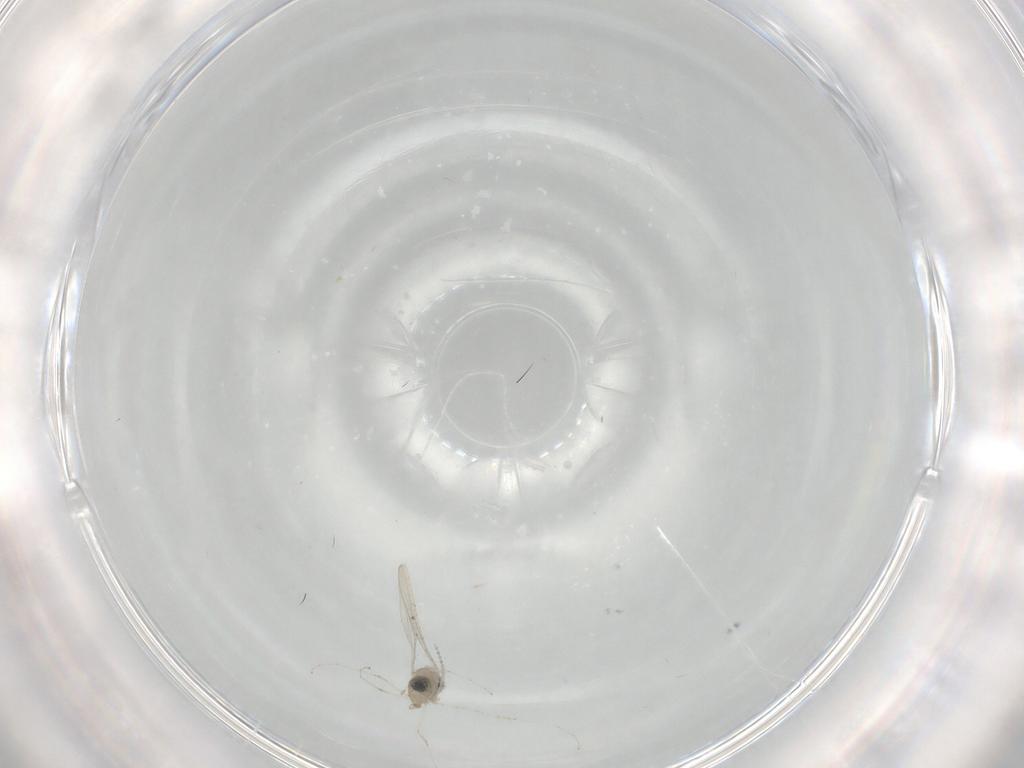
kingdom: Animalia
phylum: Arthropoda
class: Insecta
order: Diptera
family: Cecidomyiidae
